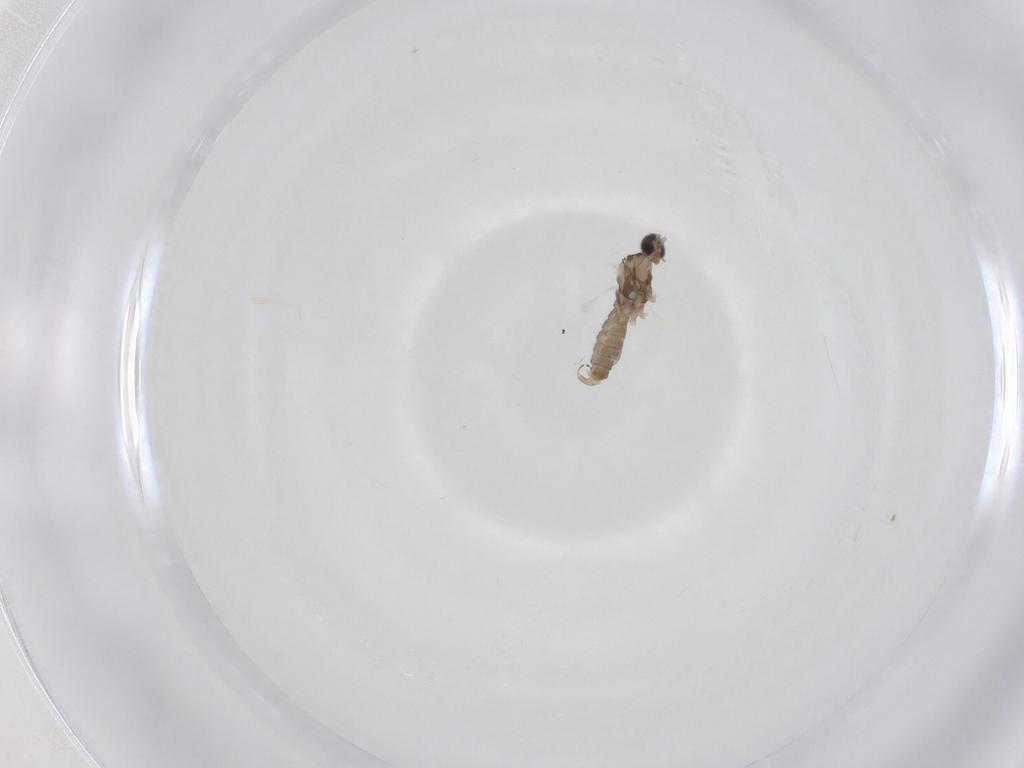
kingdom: Animalia
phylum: Arthropoda
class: Insecta
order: Diptera
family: Cecidomyiidae
